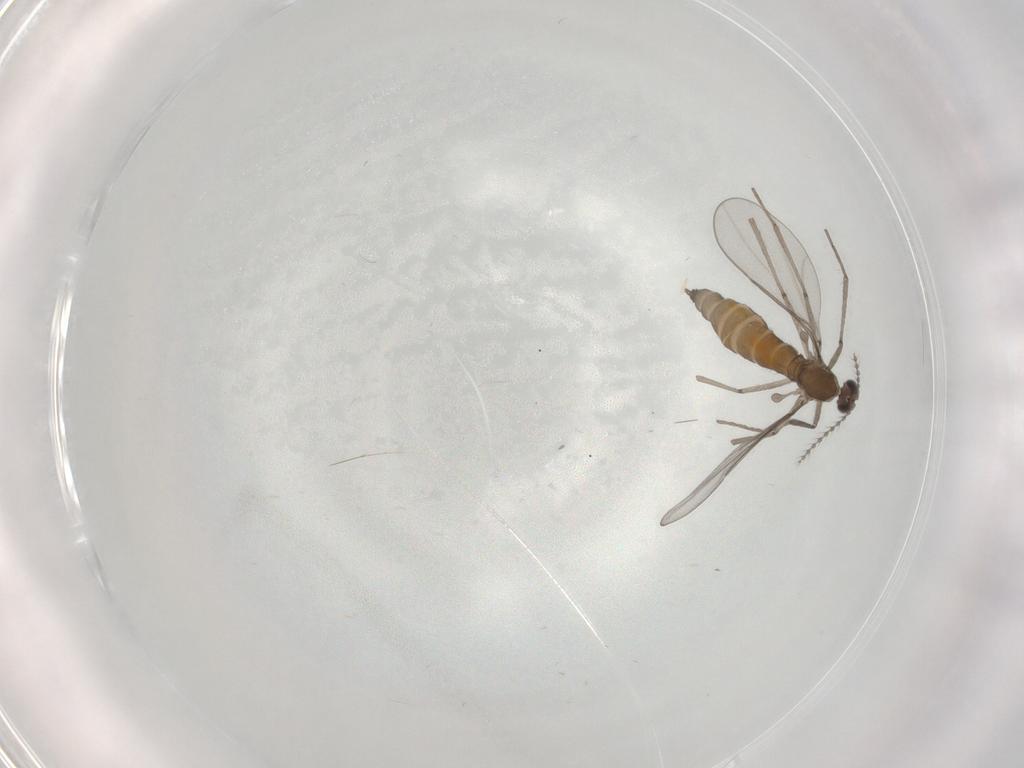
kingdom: Animalia
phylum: Arthropoda
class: Insecta
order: Diptera
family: Cecidomyiidae
